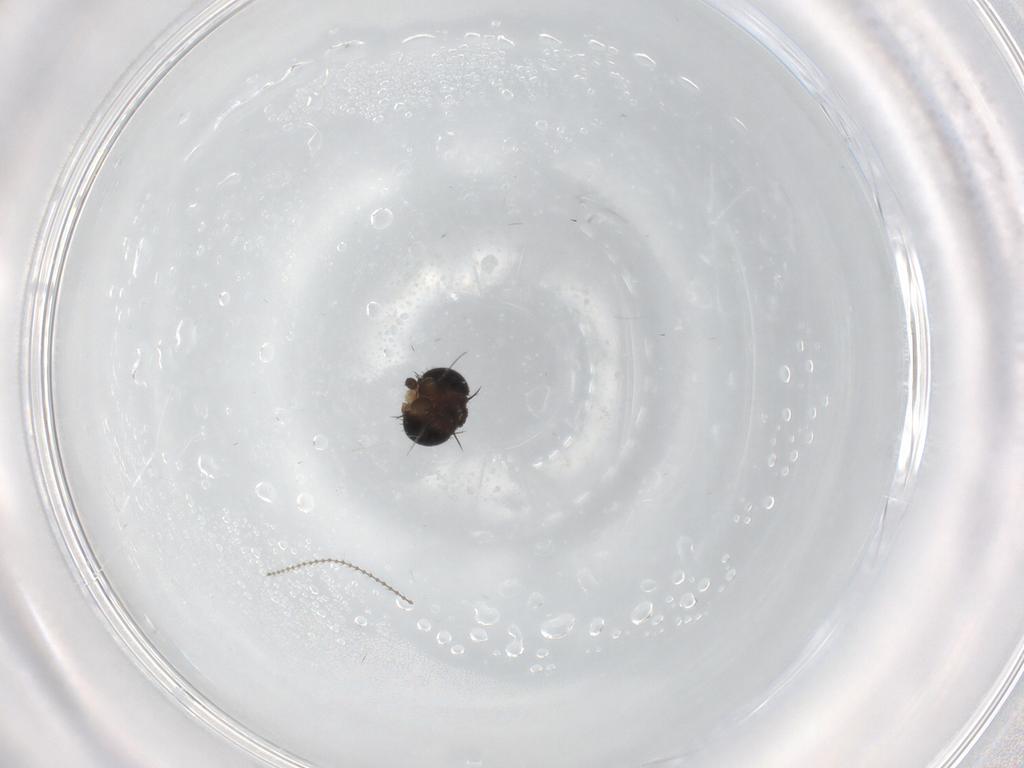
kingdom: Animalia
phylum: Arthropoda
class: Insecta
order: Diptera
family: Cecidomyiidae
